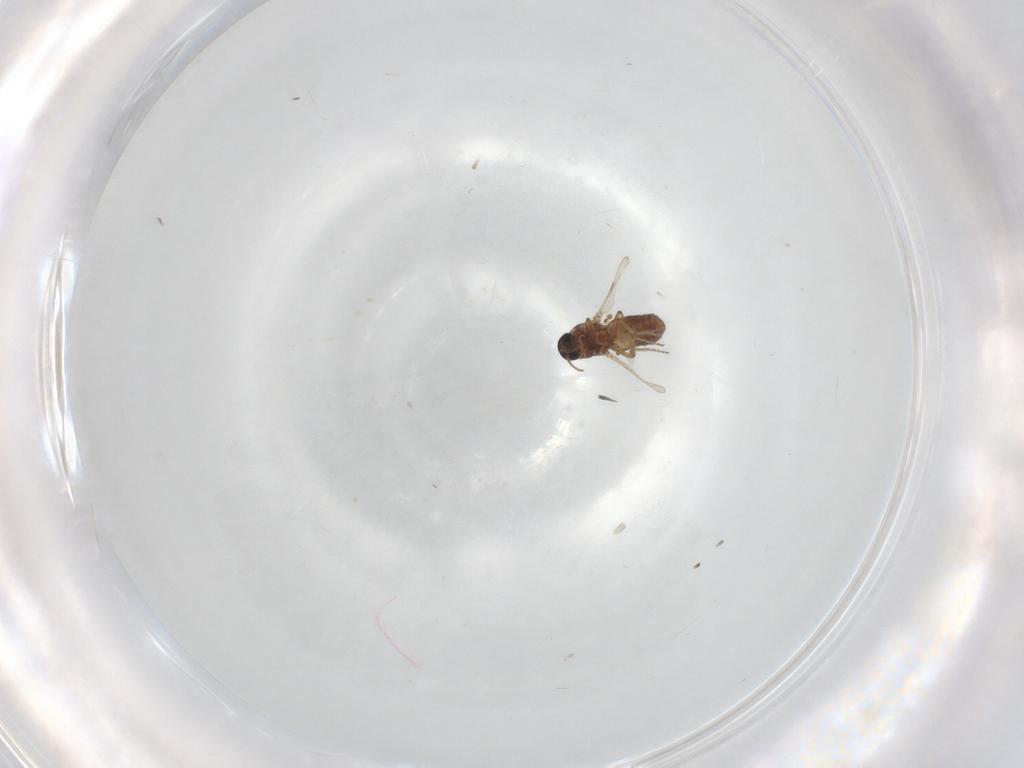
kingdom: Animalia
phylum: Arthropoda
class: Insecta
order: Diptera
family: Ceratopogonidae
